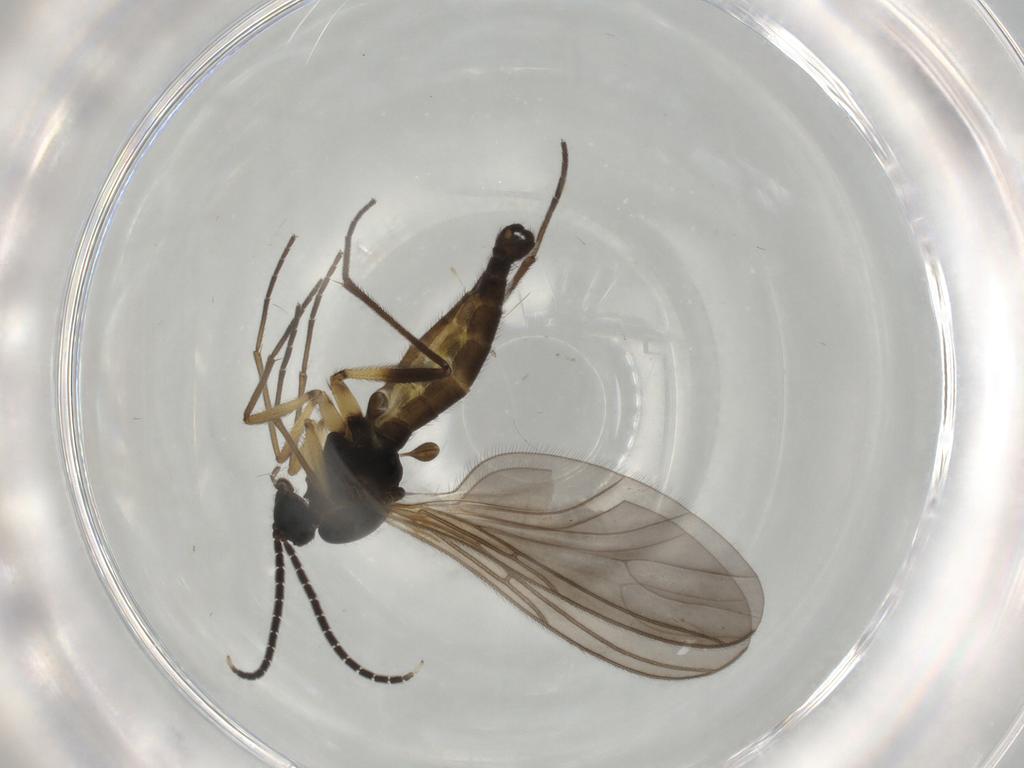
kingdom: Animalia
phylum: Arthropoda
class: Insecta
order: Diptera
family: Sciaridae
